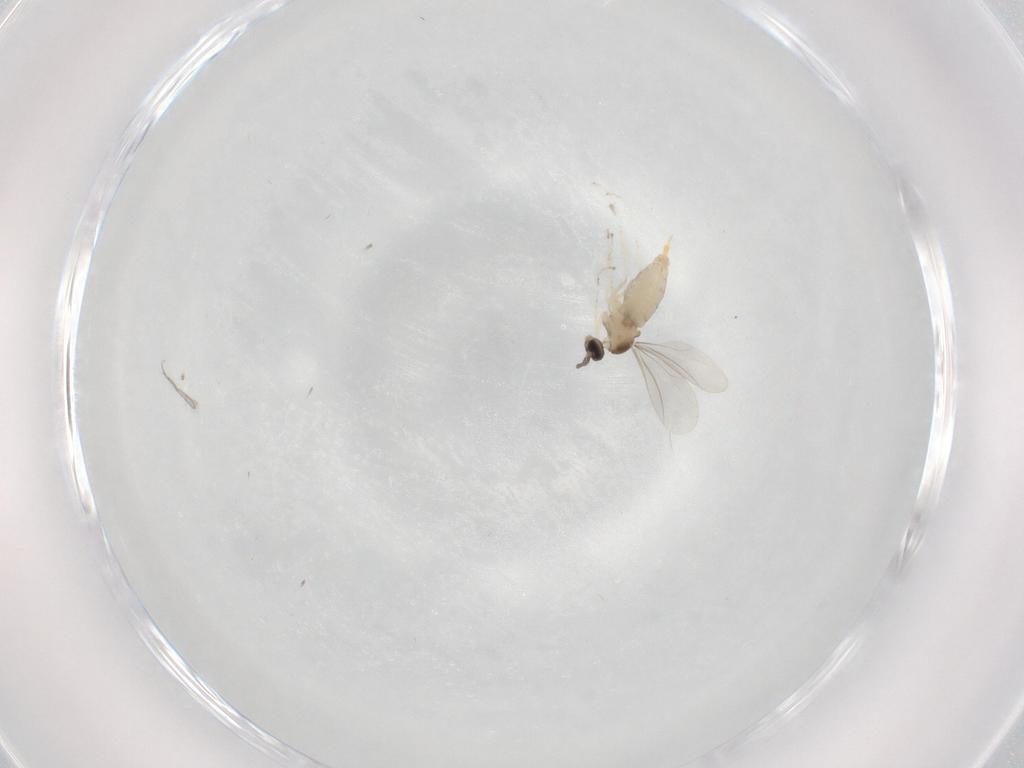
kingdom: Animalia
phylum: Arthropoda
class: Insecta
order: Diptera
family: Cecidomyiidae
